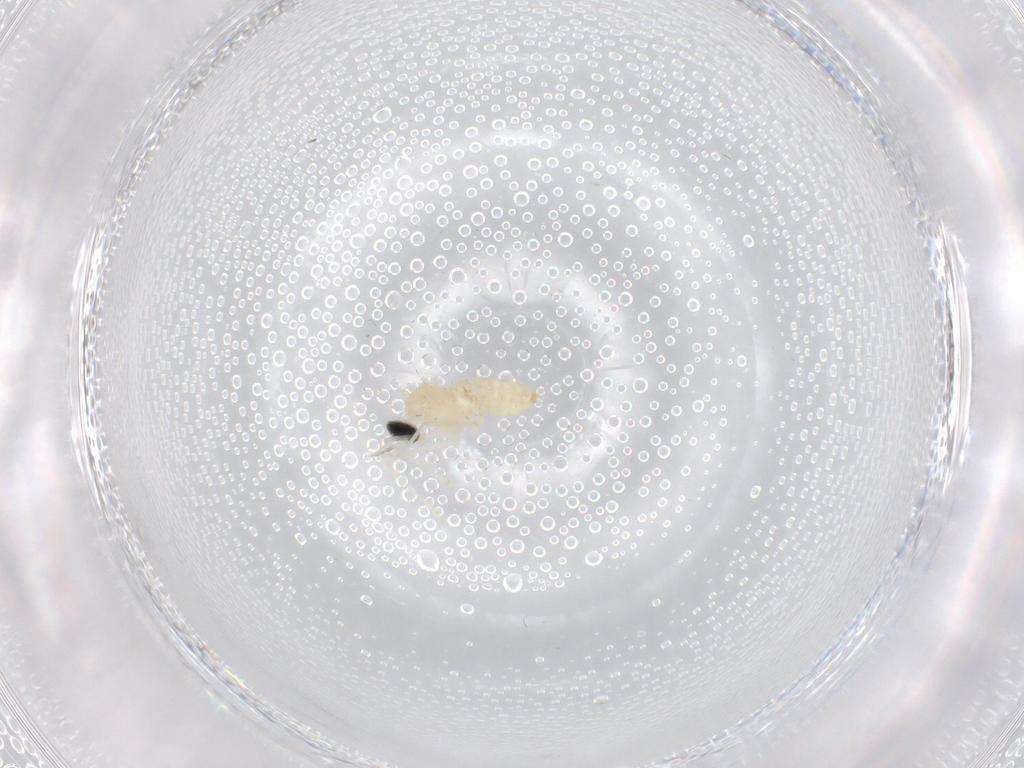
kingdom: Animalia
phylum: Arthropoda
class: Insecta
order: Diptera
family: Cecidomyiidae
